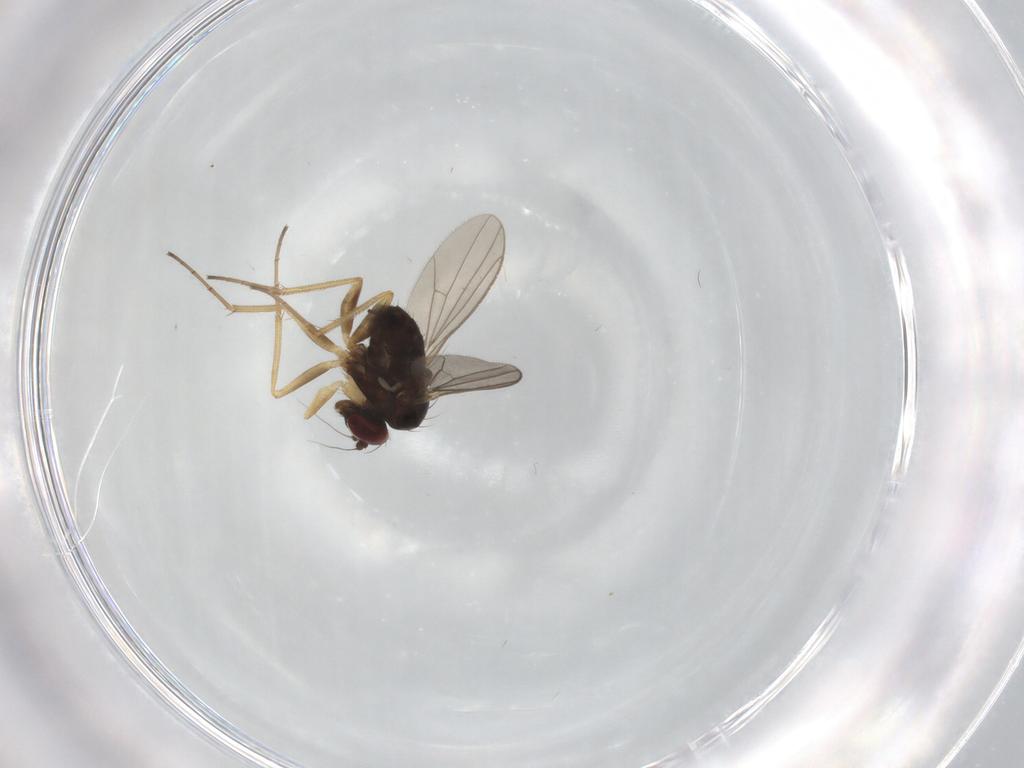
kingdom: Animalia
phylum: Arthropoda
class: Insecta
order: Diptera
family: Dolichopodidae
